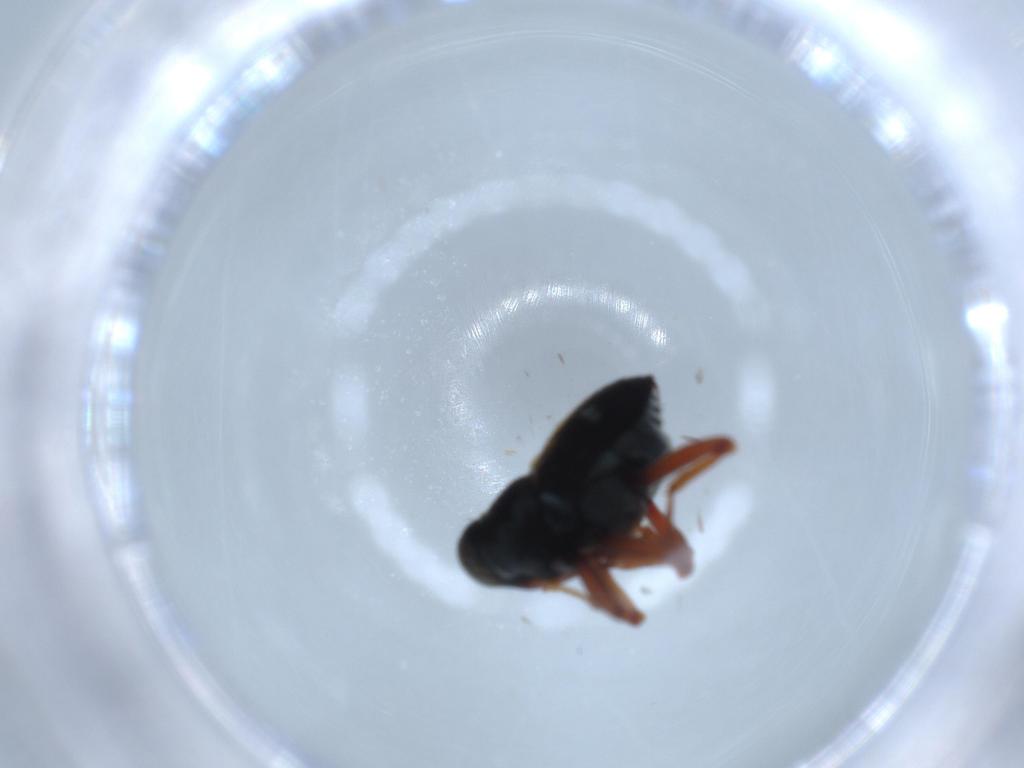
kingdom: Animalia
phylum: Arthropoda
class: Insecta
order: Coleoptera
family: Curculionidae
